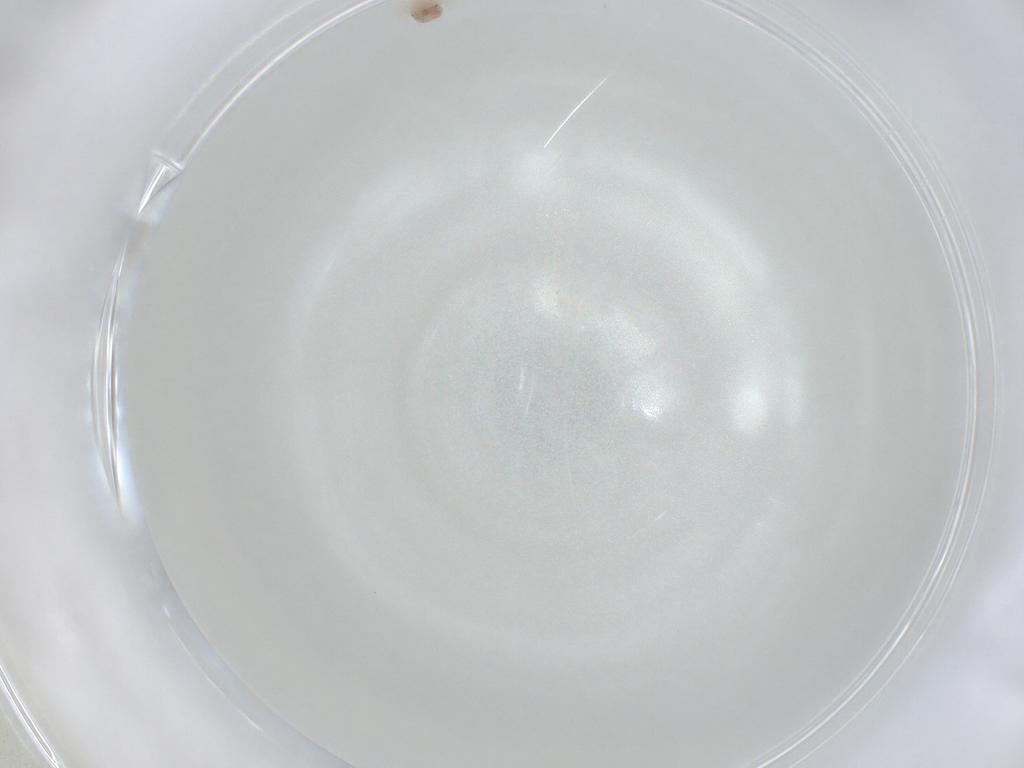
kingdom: Animalia
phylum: Arthropoda
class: Arachnida
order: Trombidiformes
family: Anystidae
